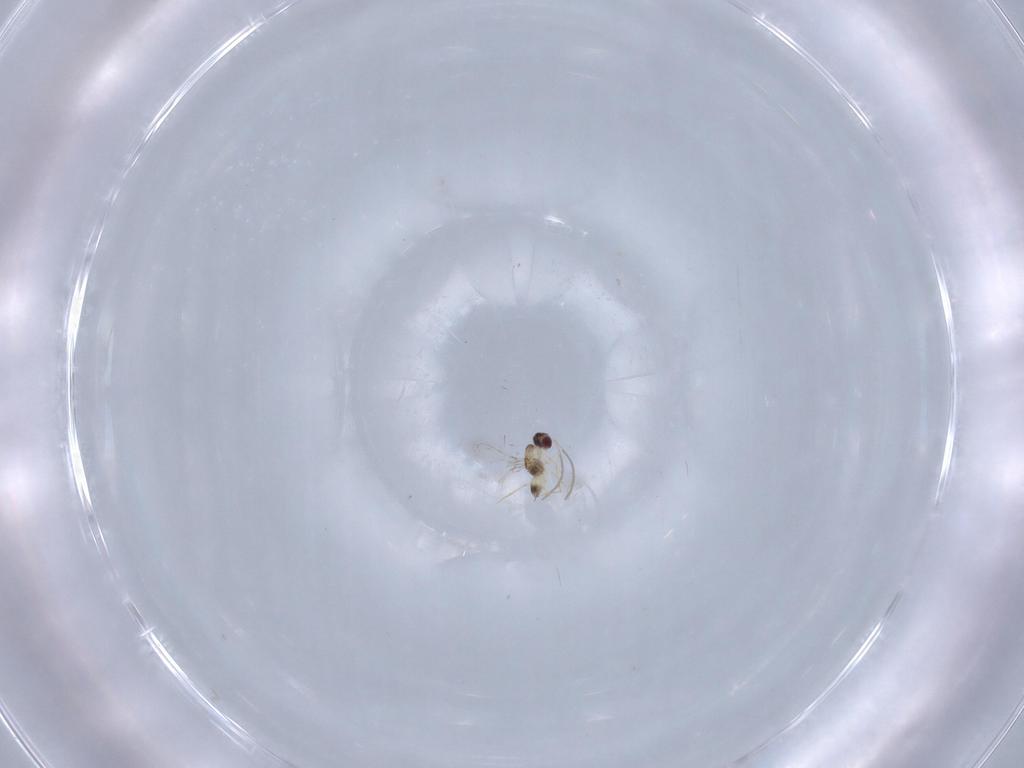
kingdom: Animalia
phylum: Arthropoda
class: Insecta
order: Hymenoptera
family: Mymaridae
